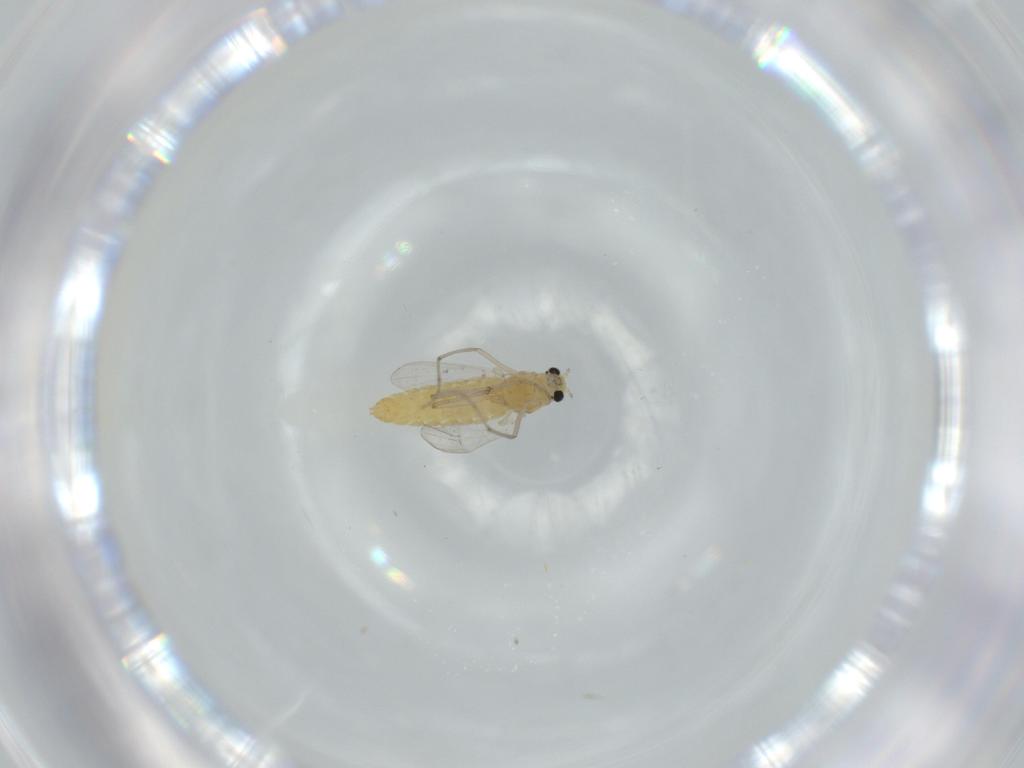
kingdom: Animalia
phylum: Arthropoda
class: Insecta
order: Diptera
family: Chironomidae
